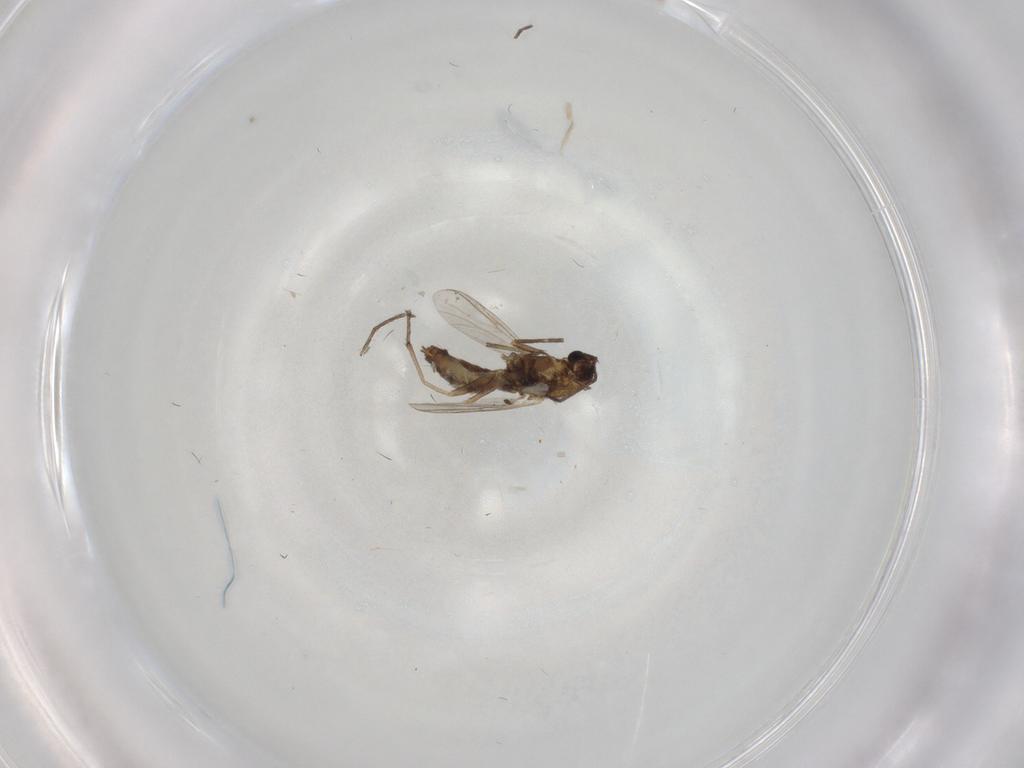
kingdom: Animalia
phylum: Arthropoda
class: Insecta
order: Diptera
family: Chironomidae
